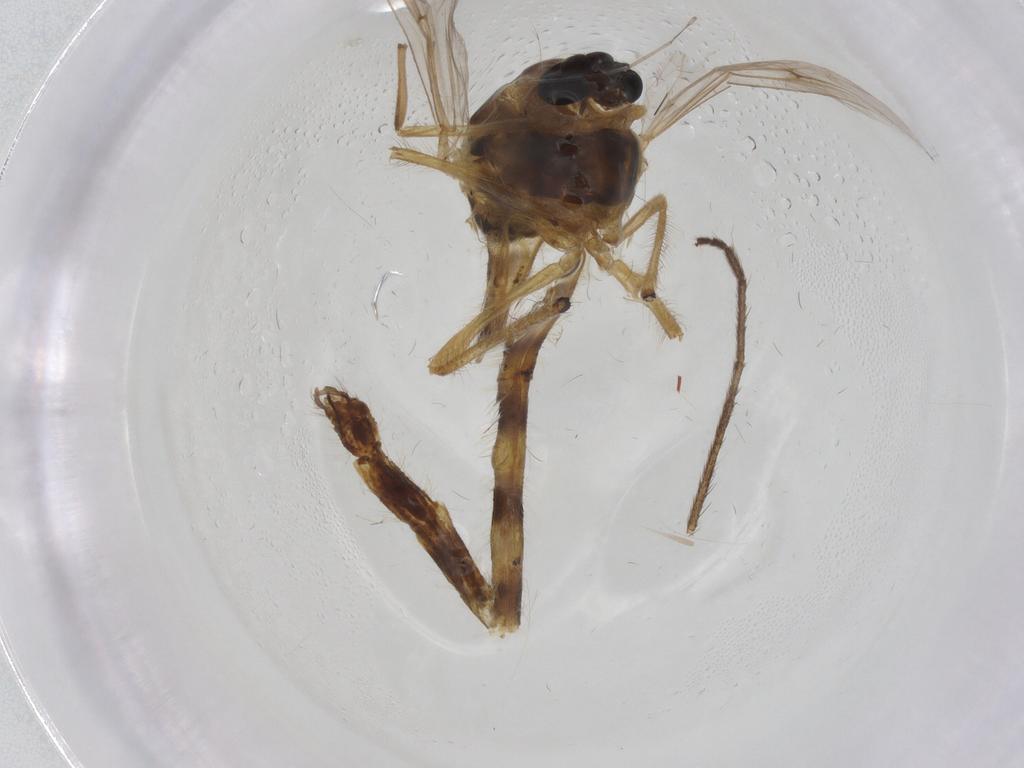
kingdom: Animalia
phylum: Arthropoda
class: Insecta
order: Diptera
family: Chironomidae
